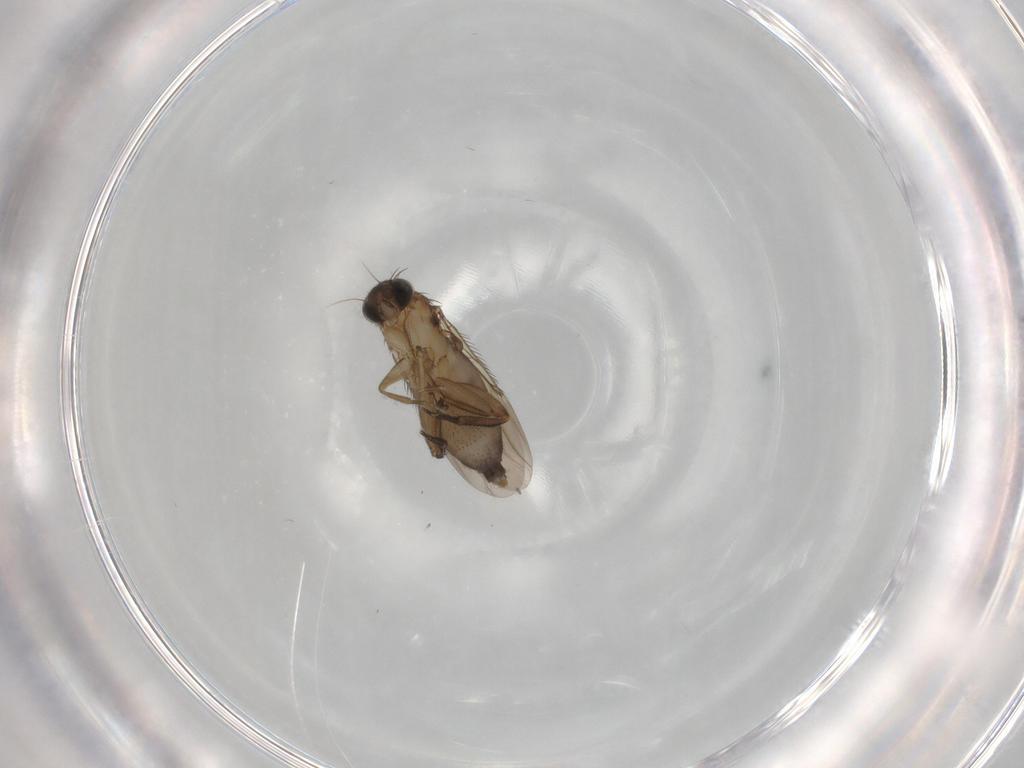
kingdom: Animalia
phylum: Arthropoda
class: Insecta
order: Diptera
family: Phoridae
